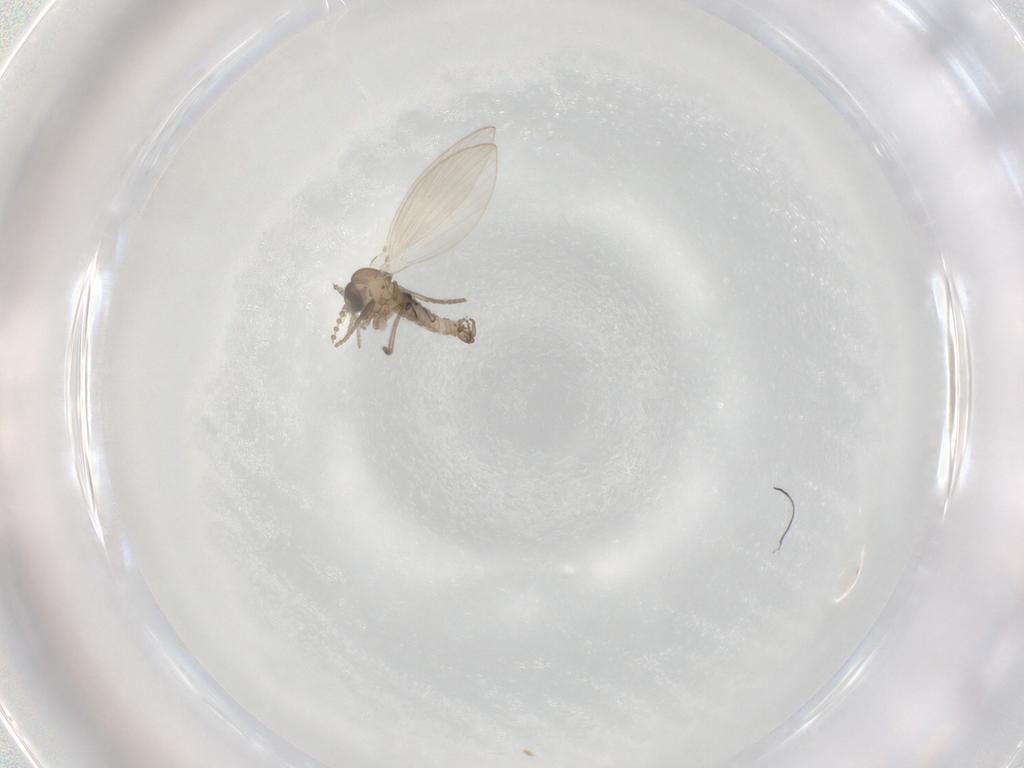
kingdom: Animalia
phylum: Arthropoda
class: Insecta
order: Diptera
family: Psychodidae
